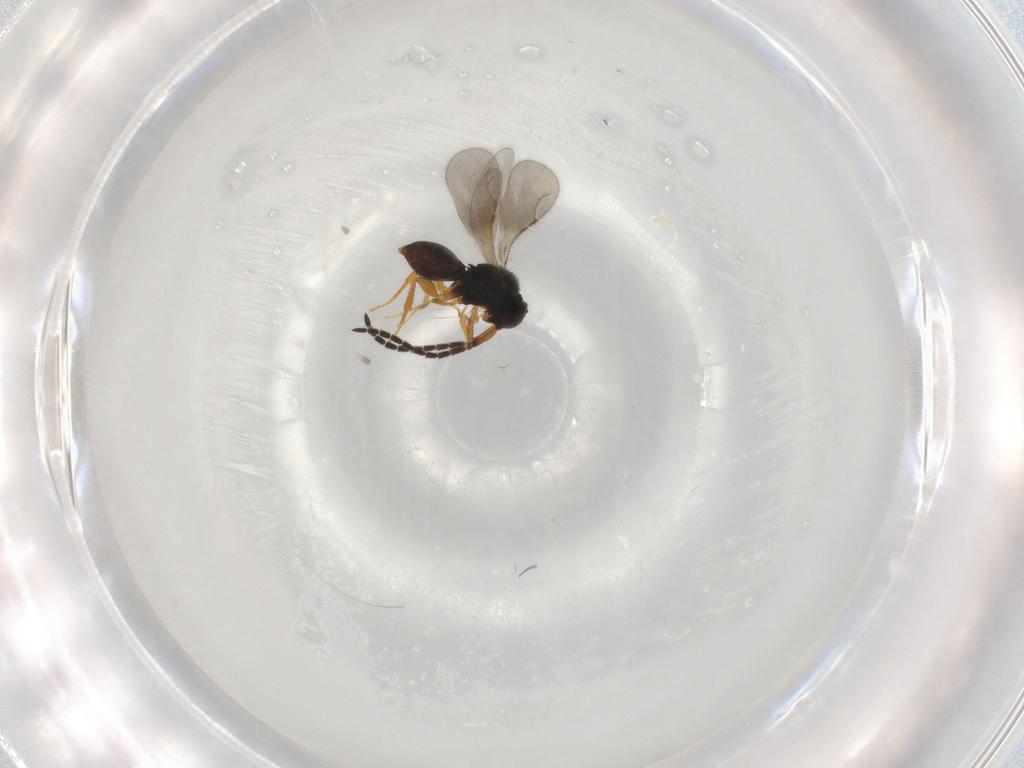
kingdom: Animalia
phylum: Arthropoda
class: Insecta
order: Hymenoptera
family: Ceraphronidae
